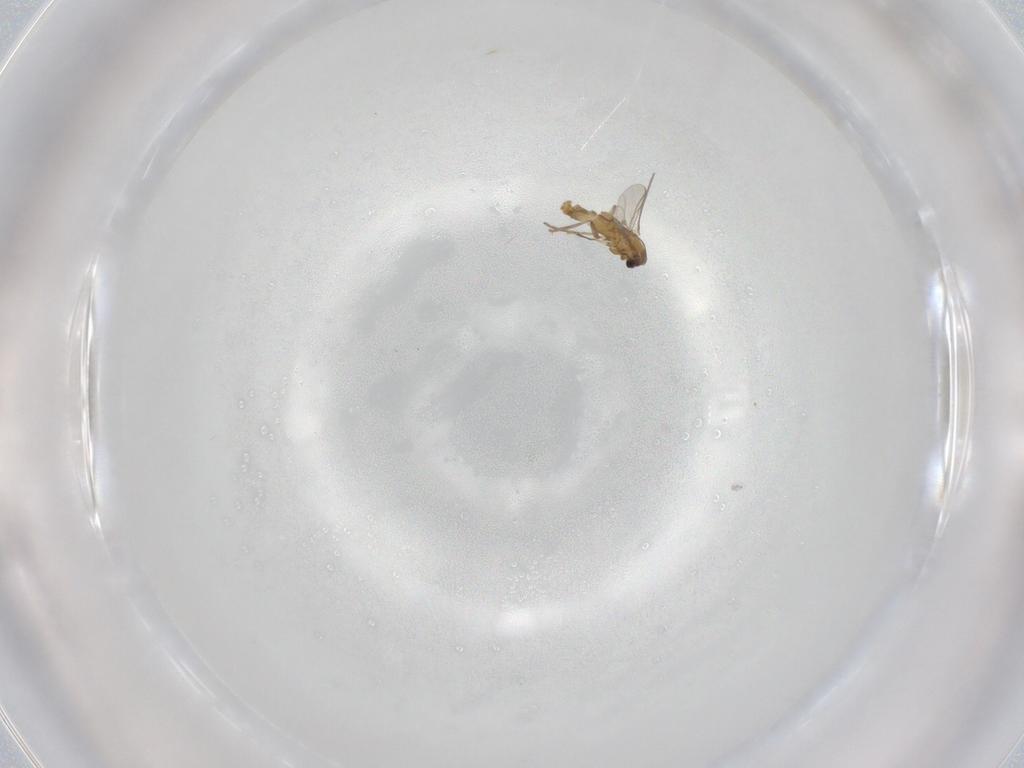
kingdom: Animalia
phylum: Arthropoda
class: Insecta
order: Diptera
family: Chironomidae
